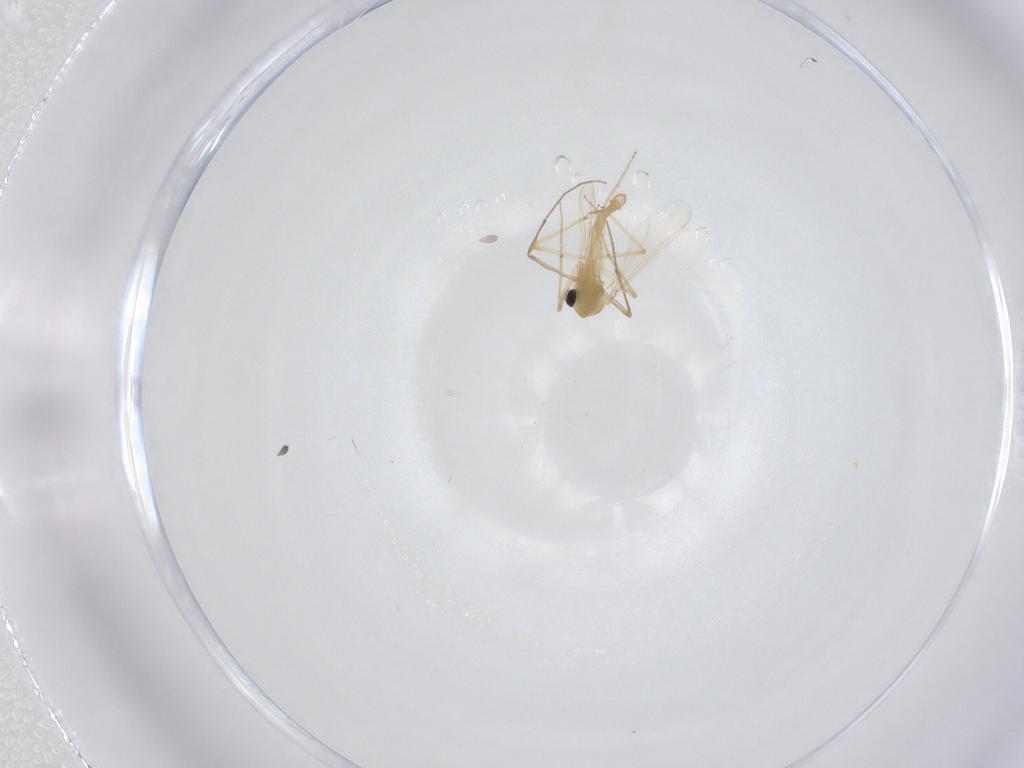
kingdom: Animalia
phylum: Arthropoda
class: Insecta
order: Diptera
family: Chironomidae
